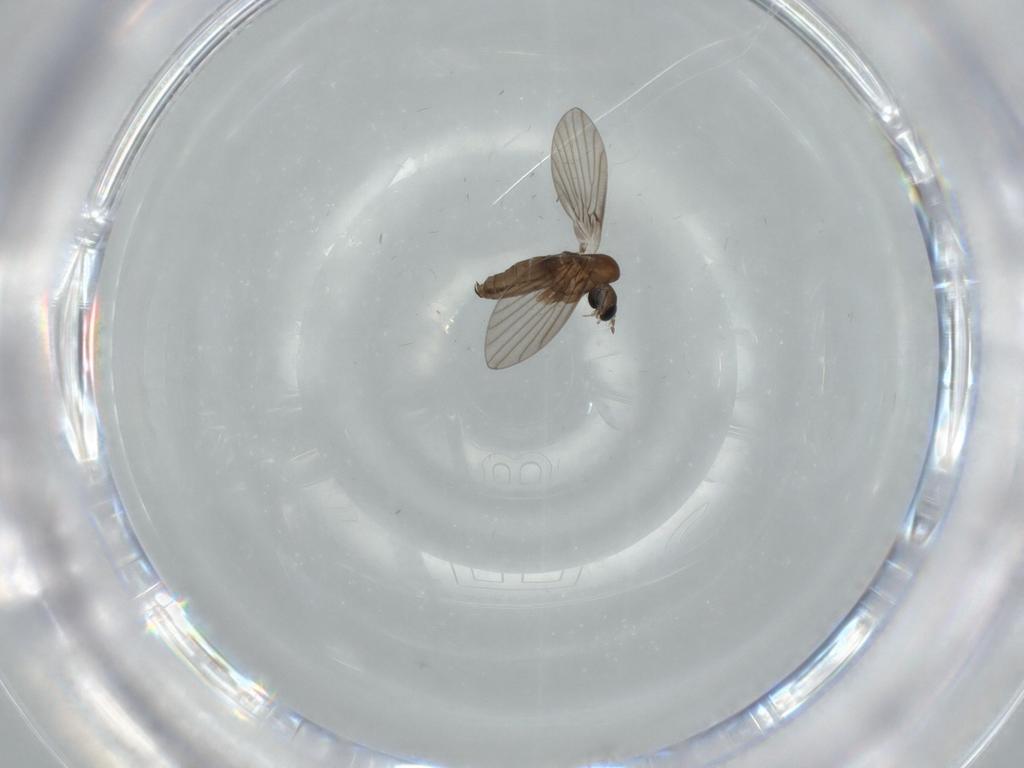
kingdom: Animalia
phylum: Arthropoda
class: Insecta
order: Diptera
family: Psychodidae
